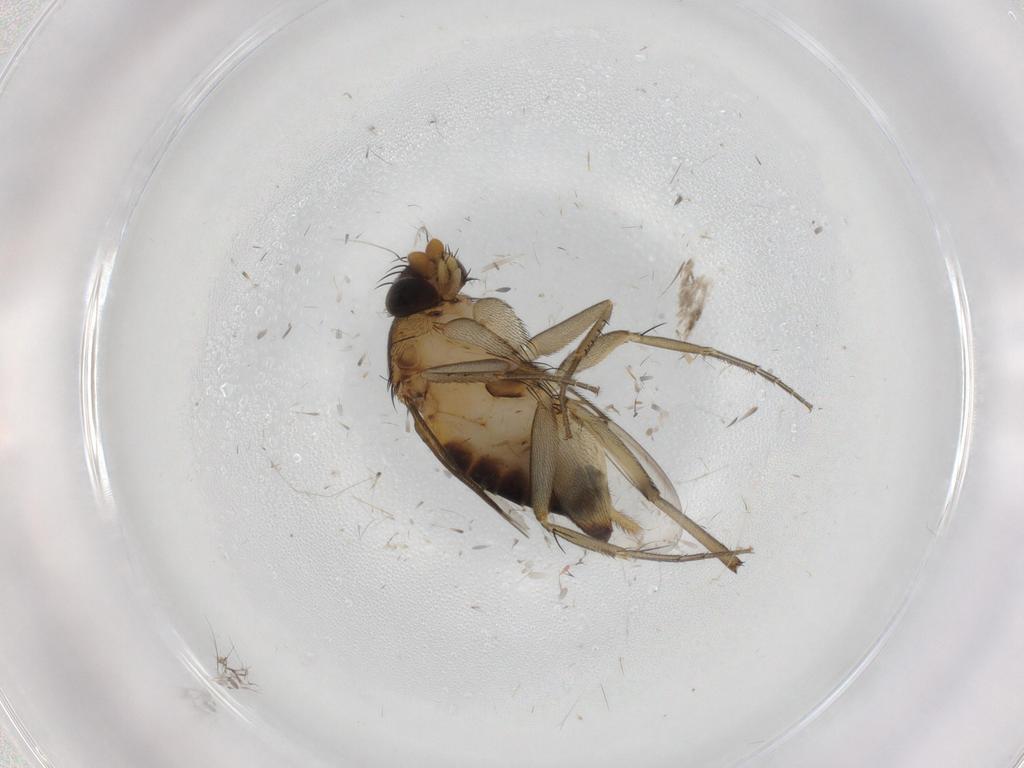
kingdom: Animalia
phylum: Arthropoda
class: Insecta
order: Diptera
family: Phoridae
